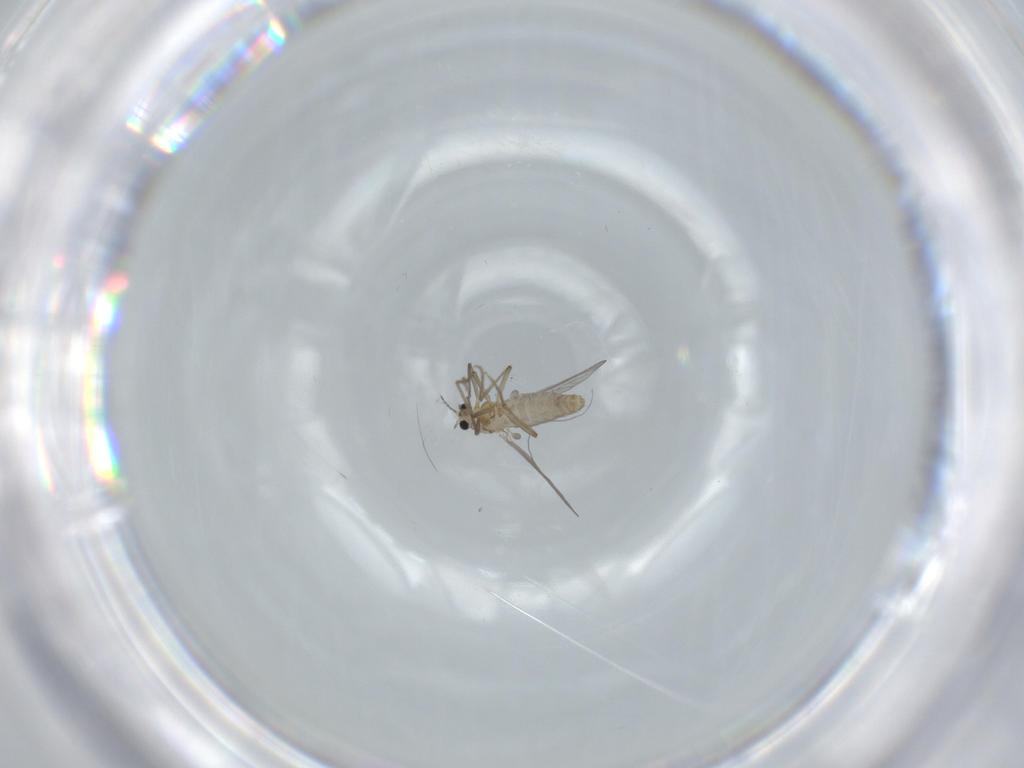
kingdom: Animalia
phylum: Arthropoda
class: Insecta
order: Diptera
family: Chironomidae
